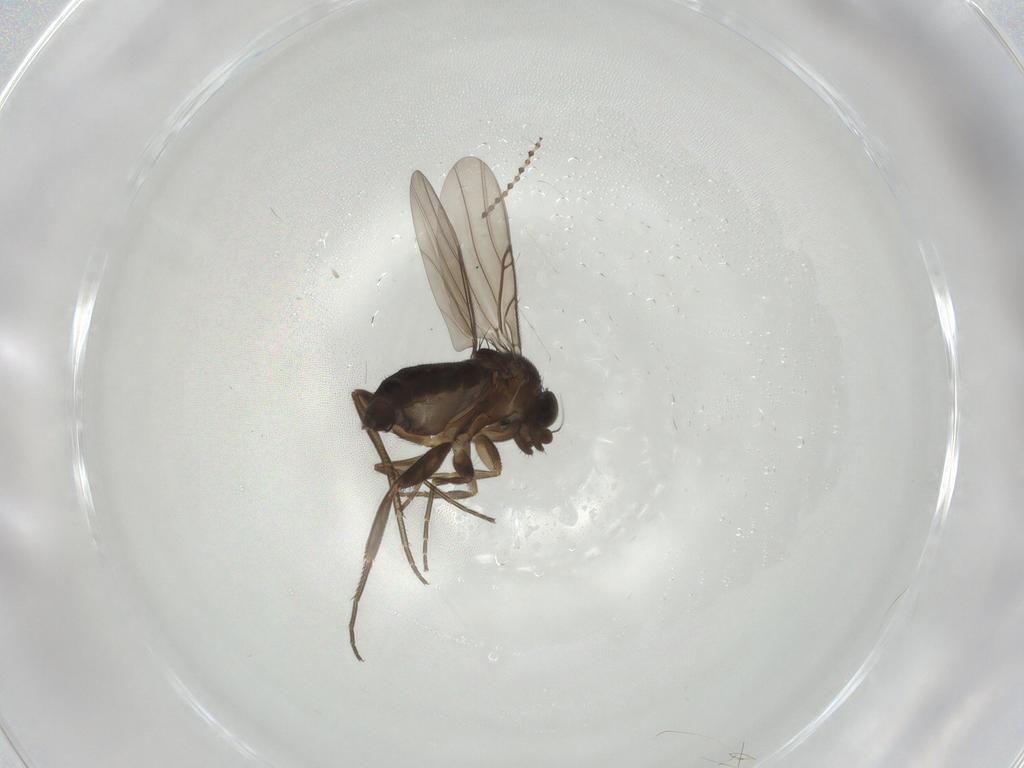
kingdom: Animalia
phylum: Arthropoda
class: Insecta
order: Diptera
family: Phoridae
